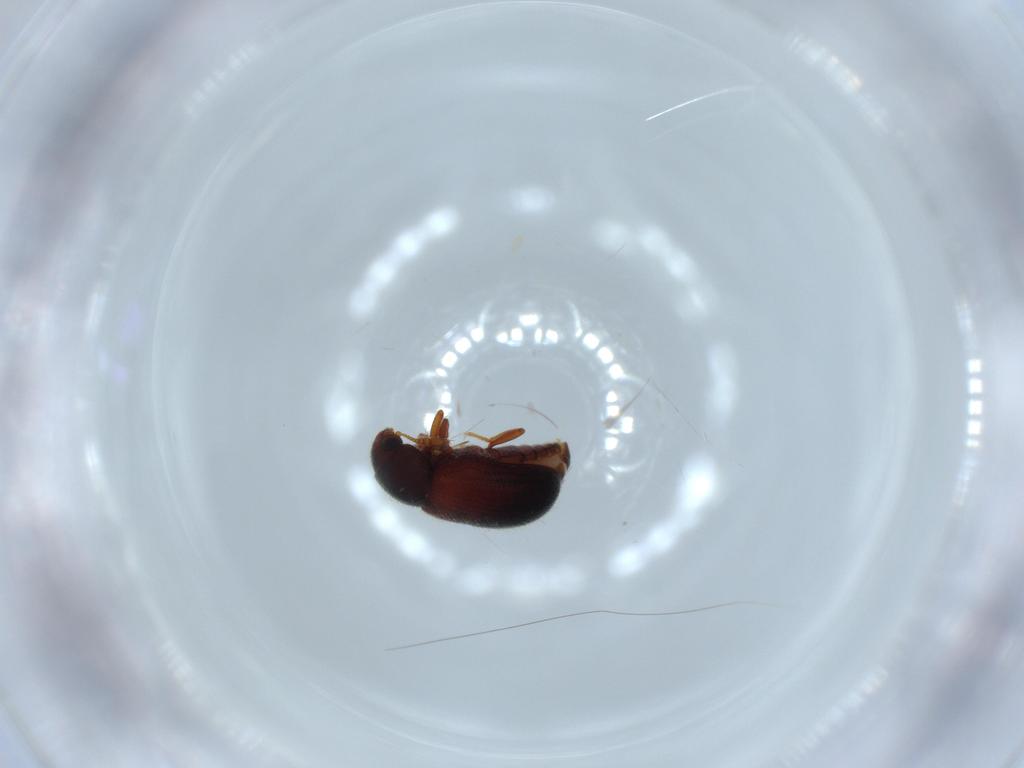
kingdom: Animalia
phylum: Arthropoda
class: Insecta
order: Coleoptera
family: Sphindidae
